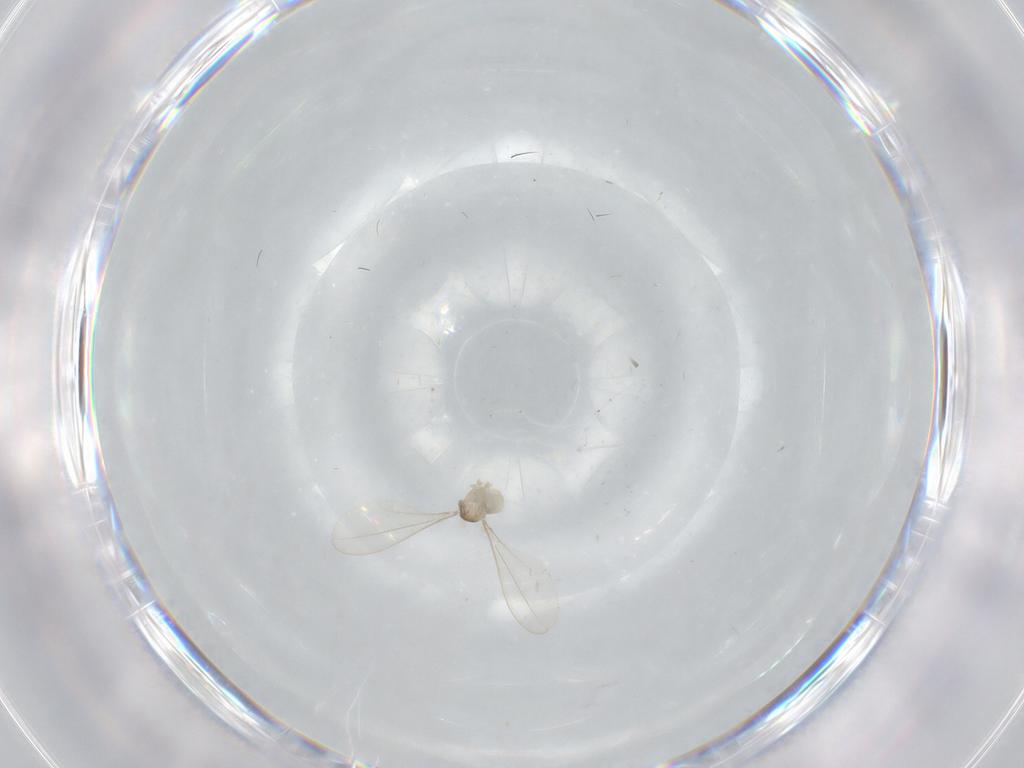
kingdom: Animalia
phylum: Arthropoda
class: Insecta
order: Diptera
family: Cecidomyiidae
